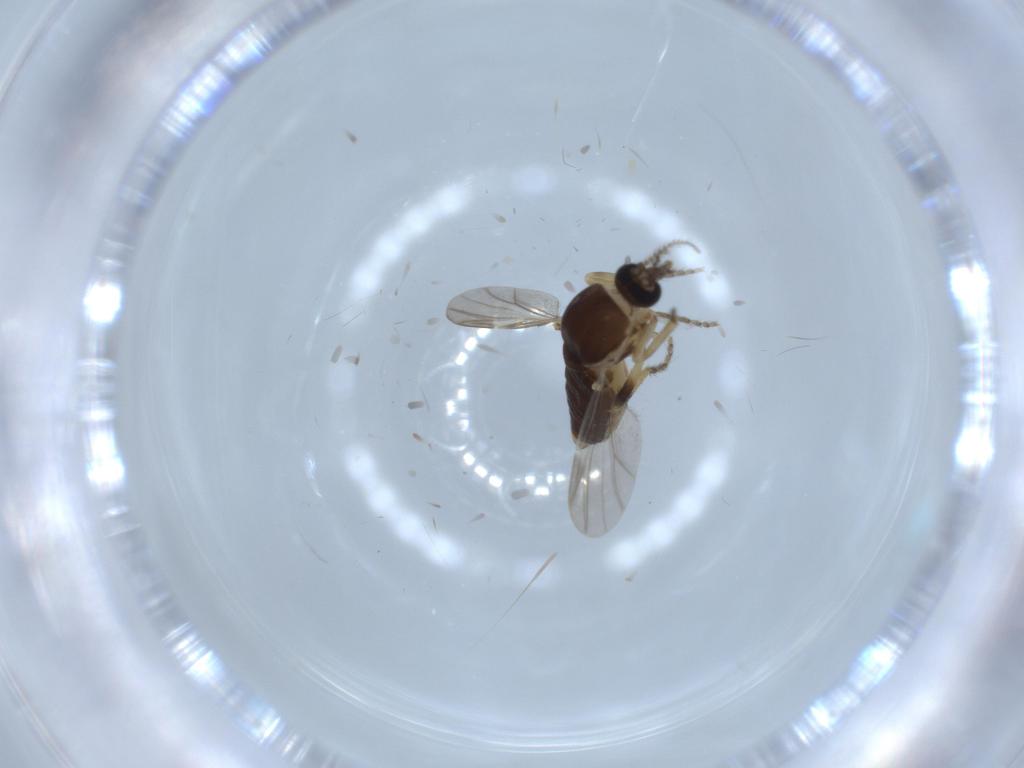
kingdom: Animalia
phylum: Arthropoda
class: Insecta
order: Diptera
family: Ceratopogonidae
